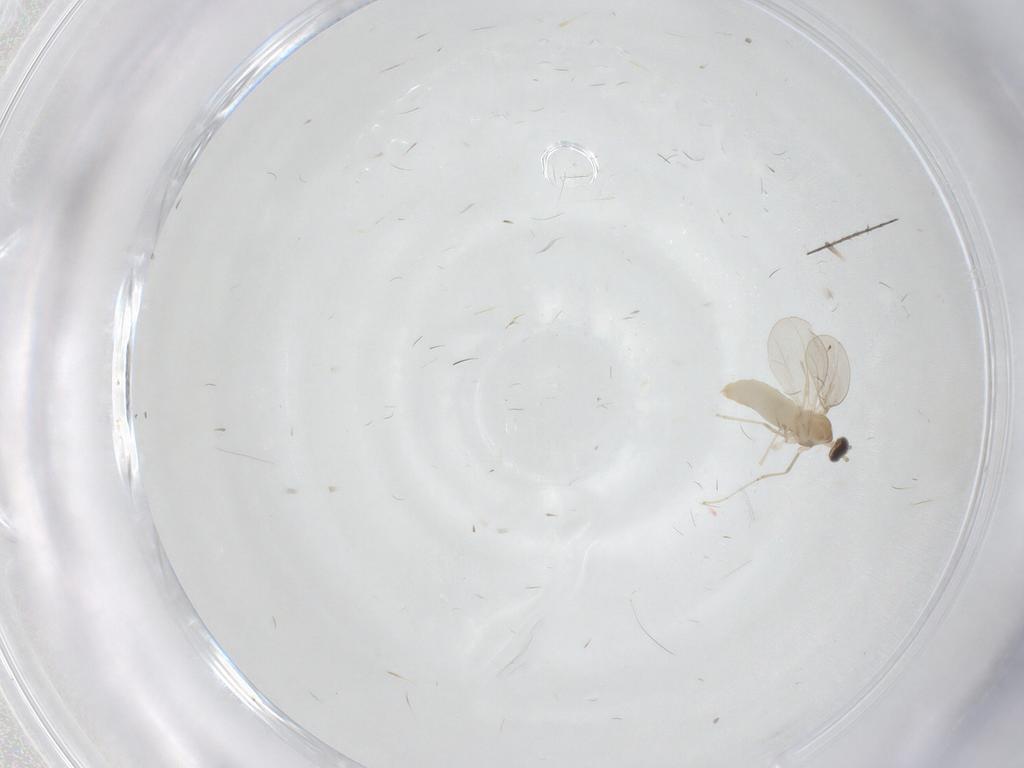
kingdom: Animalia
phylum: Arthropoda
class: Insecta
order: Diptera
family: Cecidomyiidae
